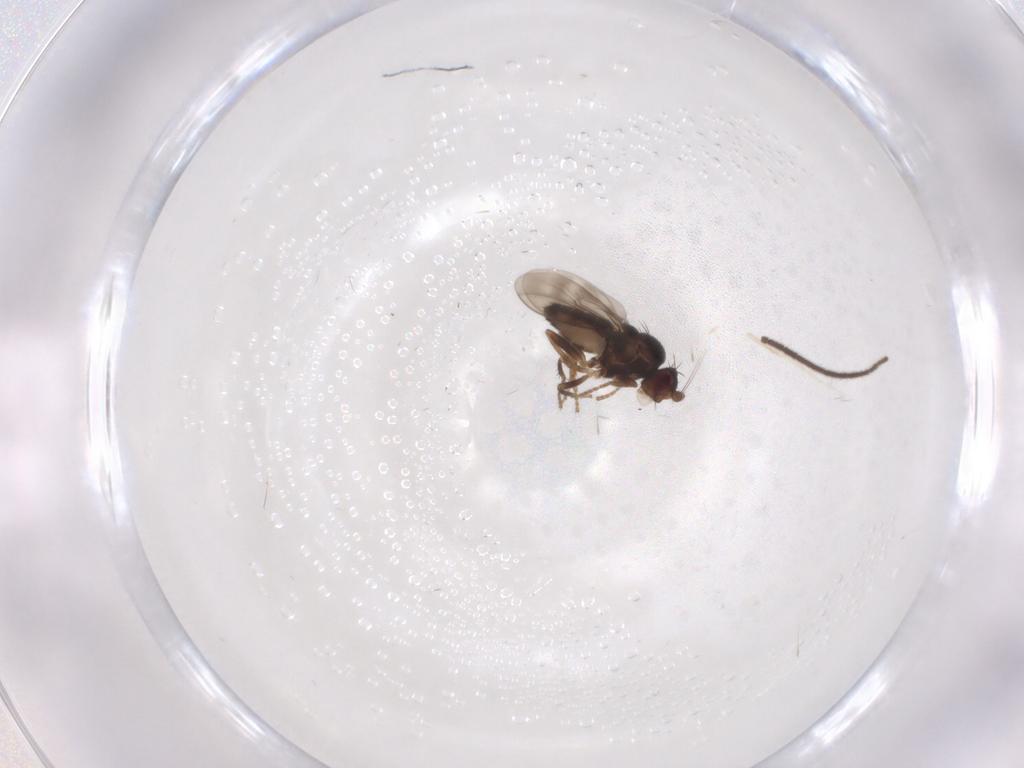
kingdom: Animalia
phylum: Arthropoda
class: Insecta
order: Diptera
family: Sphaeroceridae
